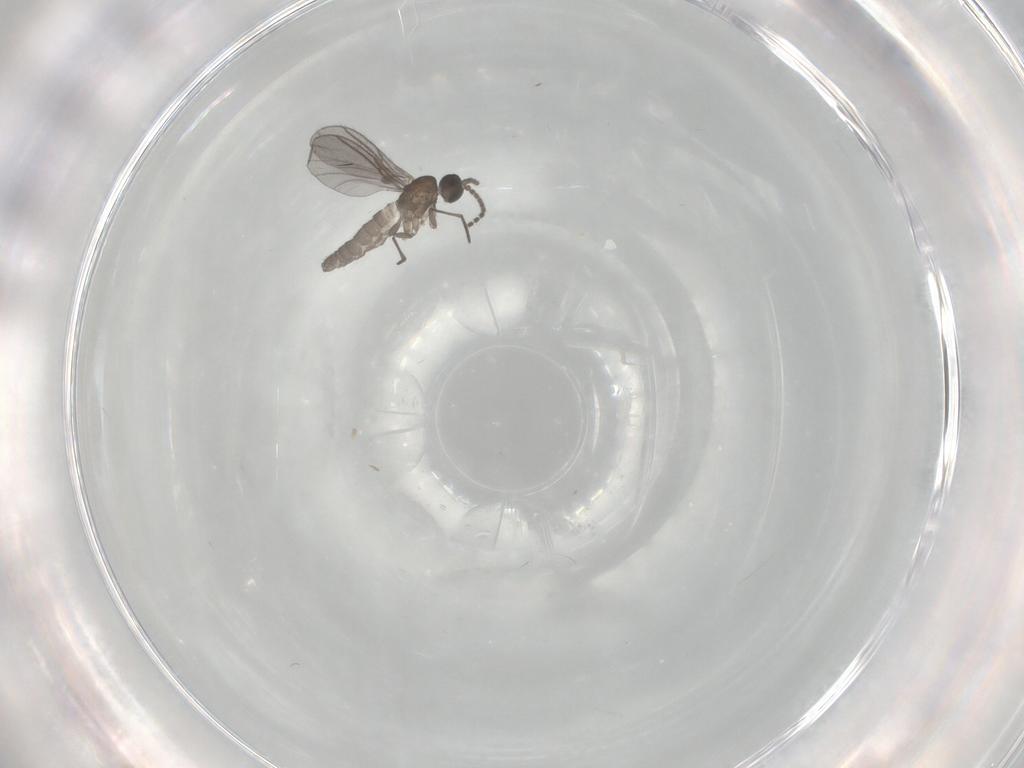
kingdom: Animalia
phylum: Arthropoda
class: Insecta
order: Diptera
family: Chironomidae
